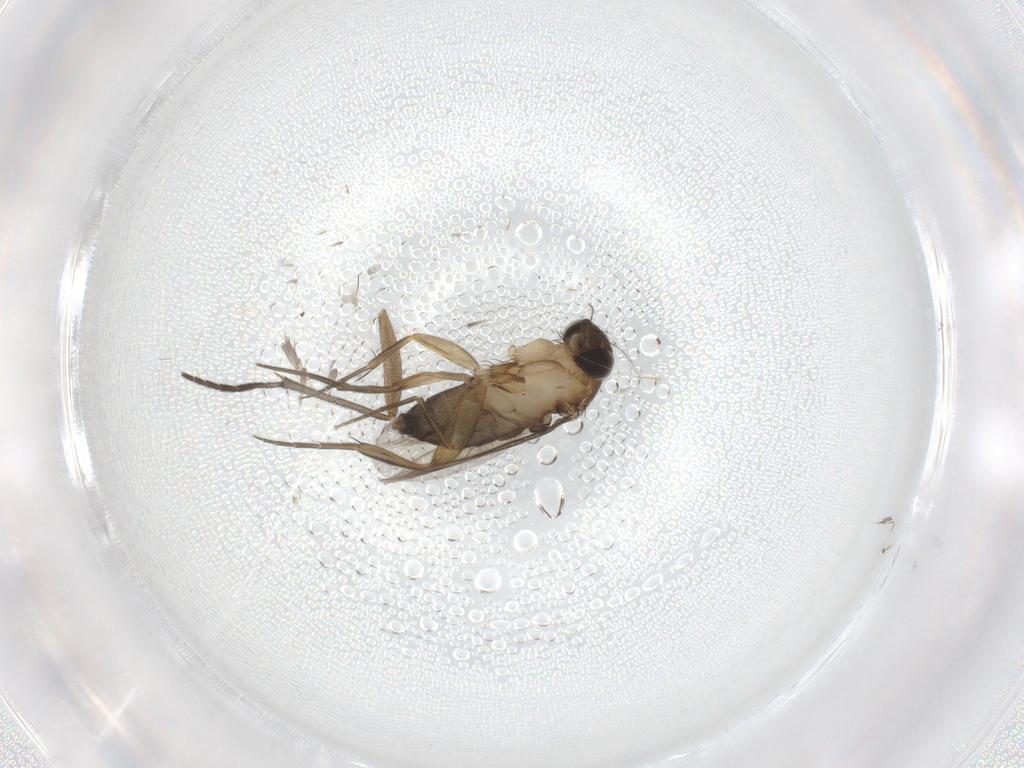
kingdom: Animalia
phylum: Arthropoda
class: Insecta
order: Diptera
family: Phoridae
